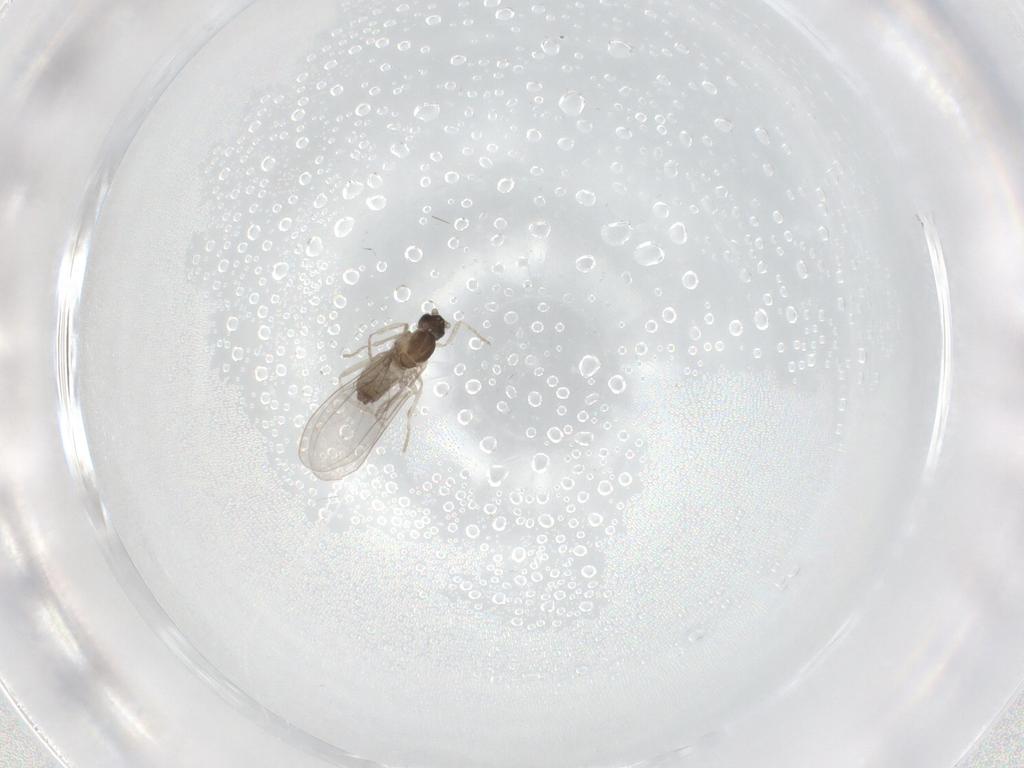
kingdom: Animalia
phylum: Arthropoda
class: Insecta
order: Diptera
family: Cecidomyiidae
